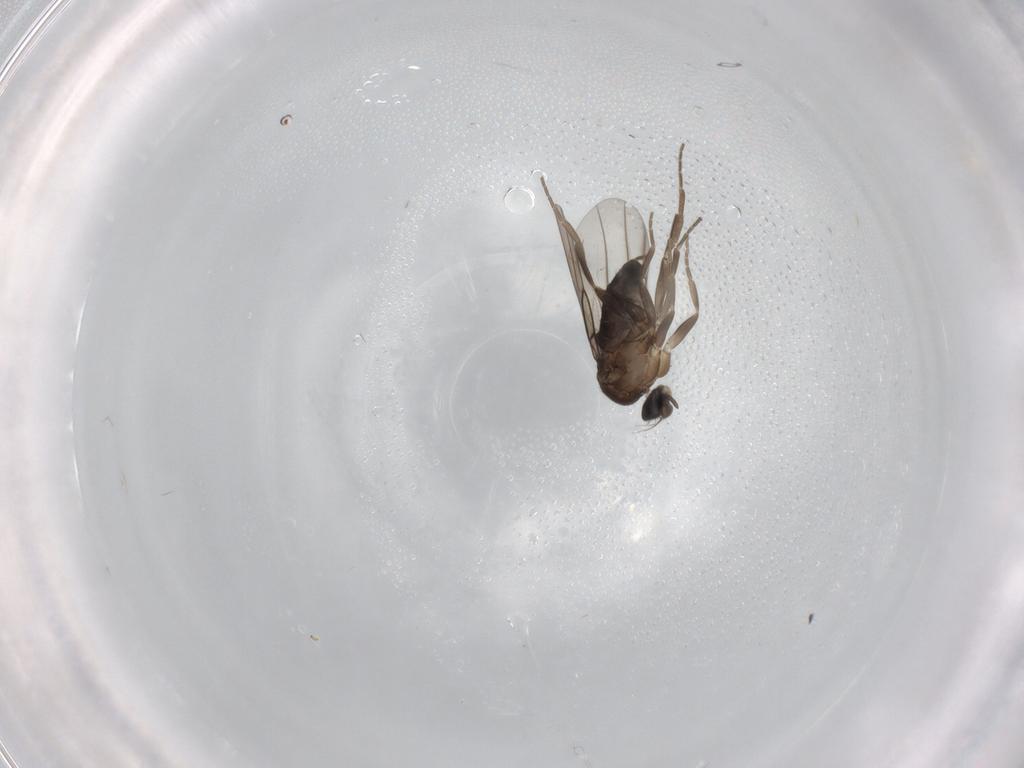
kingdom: Animalia
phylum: Arthropoda
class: Insecta
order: Diptera
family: Phoridae
